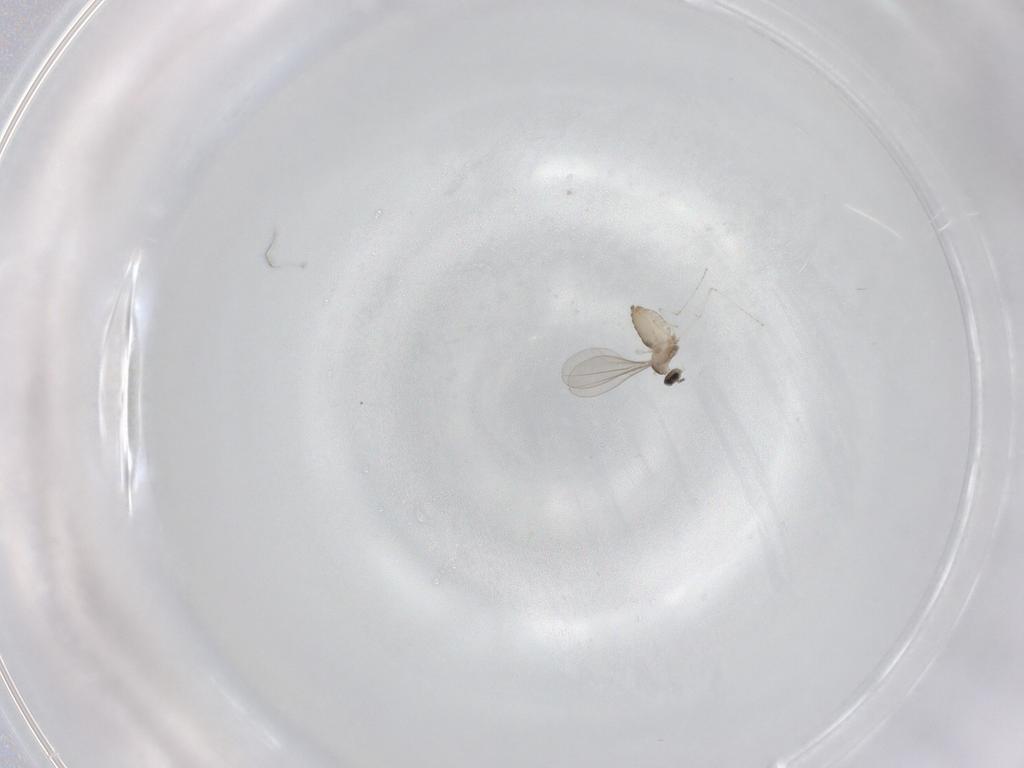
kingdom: Animalia
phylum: Arthropoda
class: Insecta
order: Diptera
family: Cecidomyiidae
